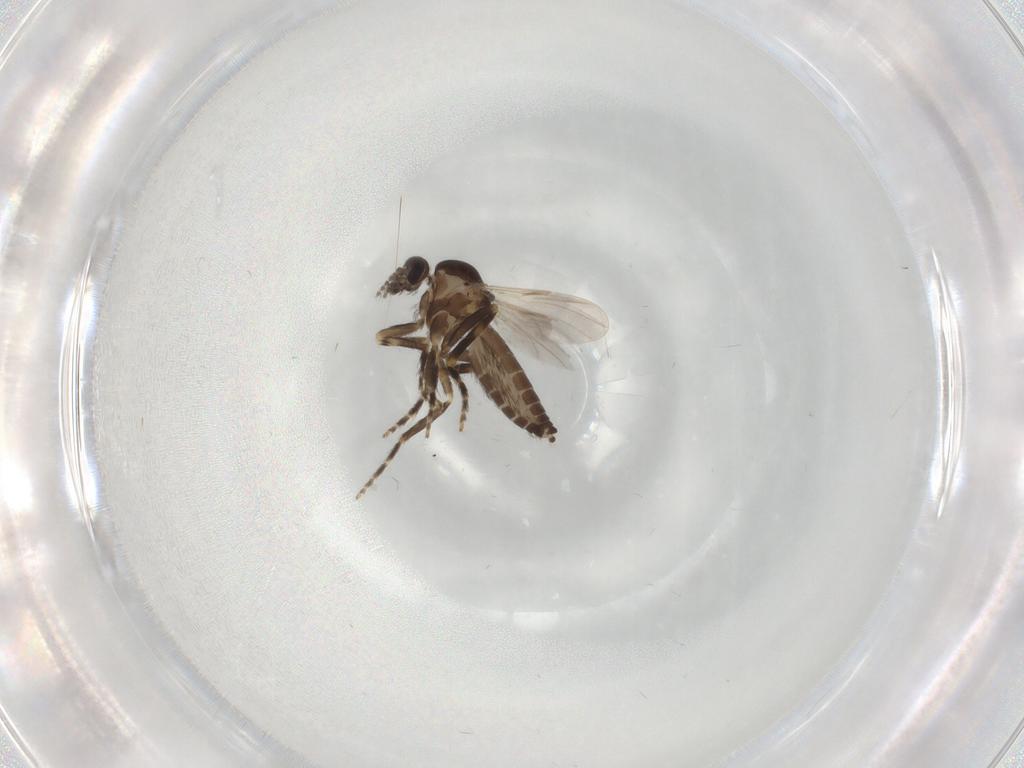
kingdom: Animalia
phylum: Arthropoda
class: Insecta
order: Diptera
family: Ceratopogonidae
